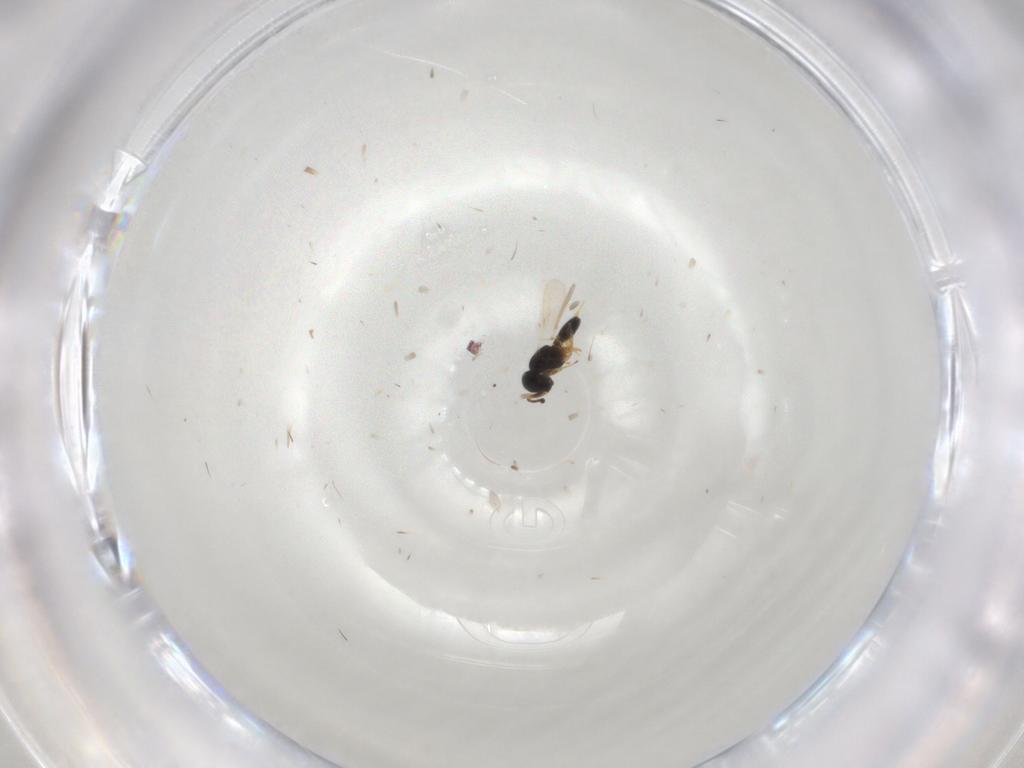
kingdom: Animalia
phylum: Arthropoda
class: Insecta
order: Hymenoptera
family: Scelionidae
